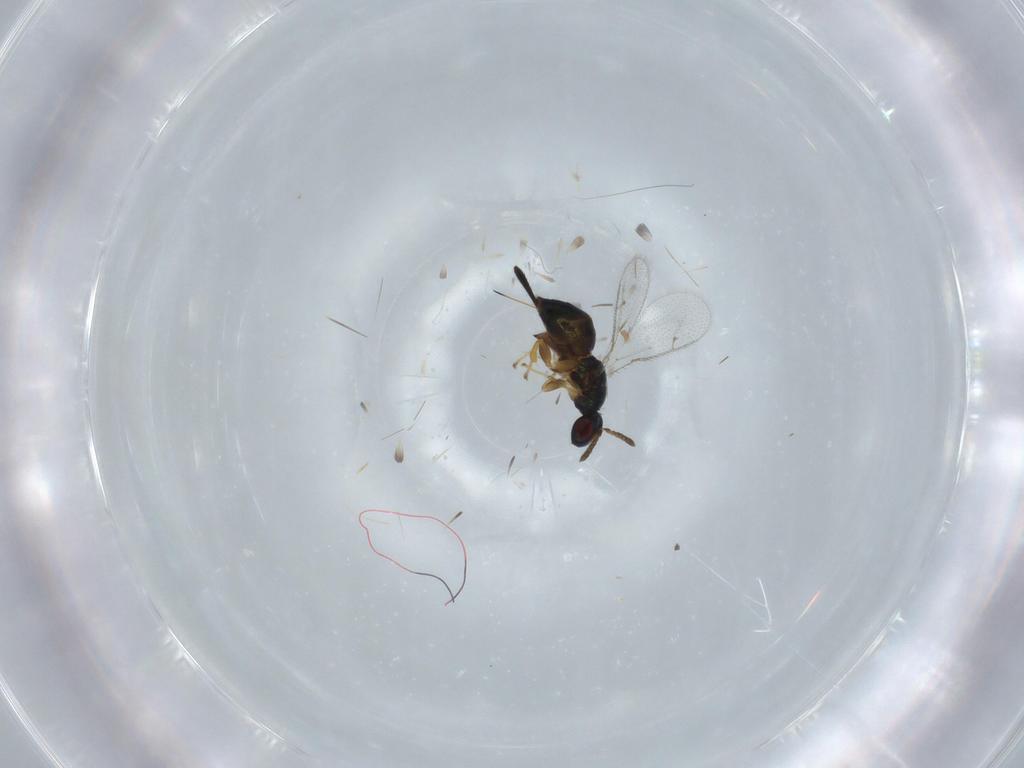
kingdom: Animalia
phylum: Arthropoda
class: Insecta
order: Hymenoptera
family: Torymidae
